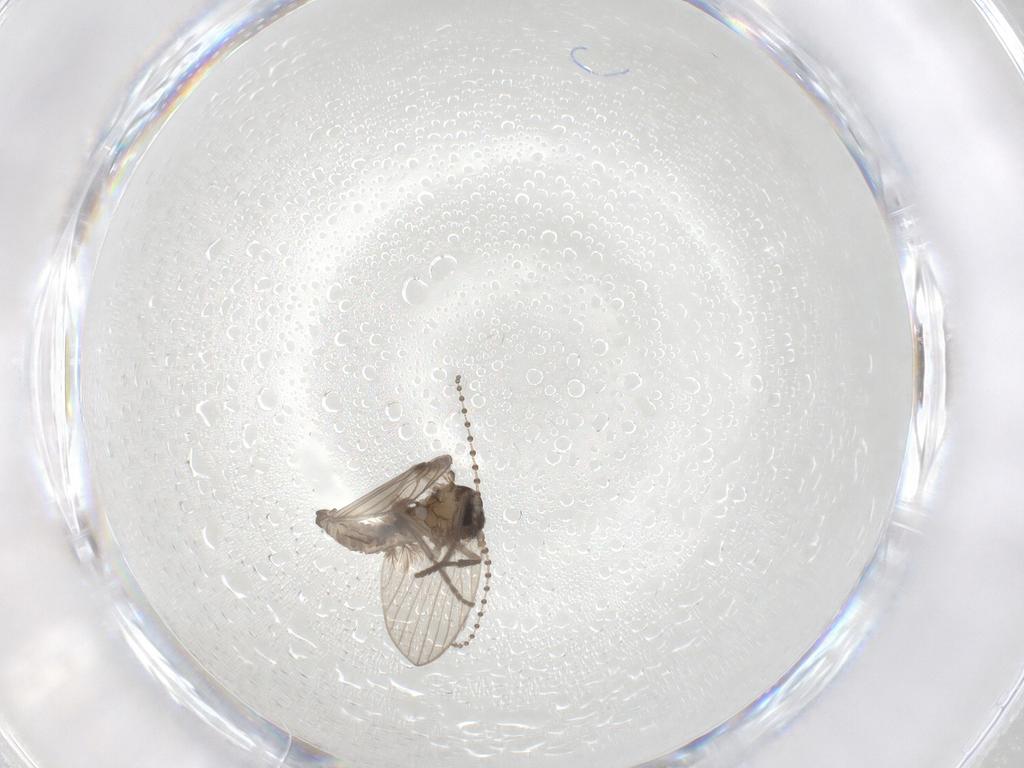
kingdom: Animalia
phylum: Arthropoda
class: Insecta
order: Diptera
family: Psychodidae
